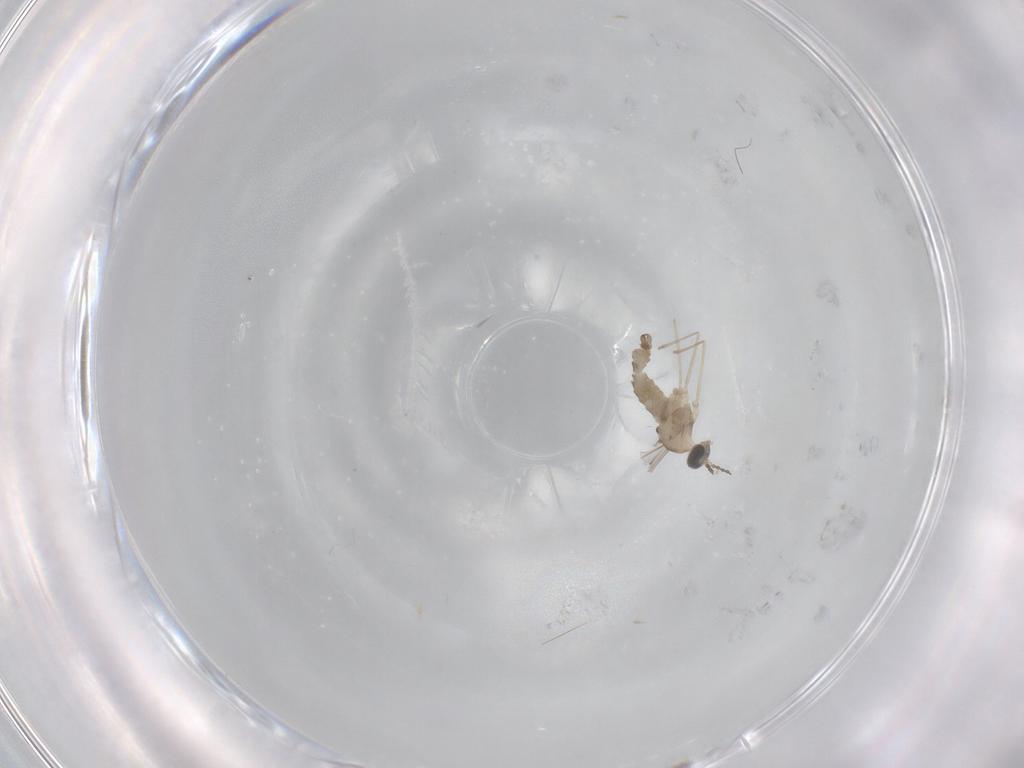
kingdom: Animalia
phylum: Arthropoda
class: Insecta
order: Diptera
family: Cecidomyiidae
